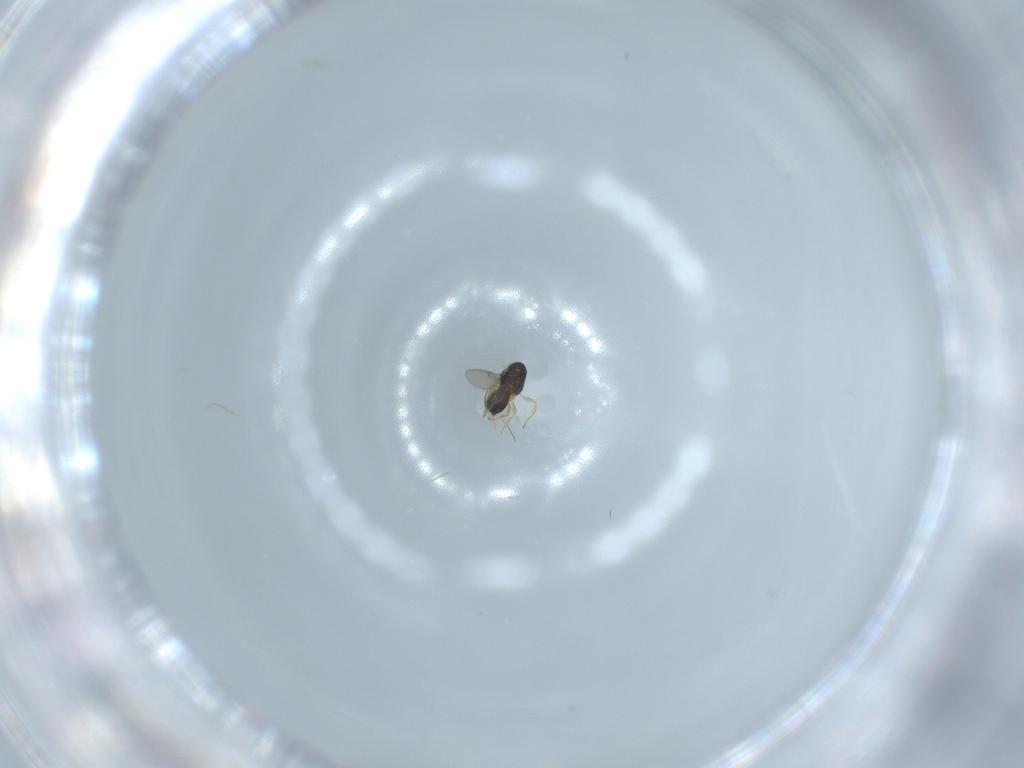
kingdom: Animalia
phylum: Arthropoda
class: Insecta
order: Hymenoptera
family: Scelionidae
